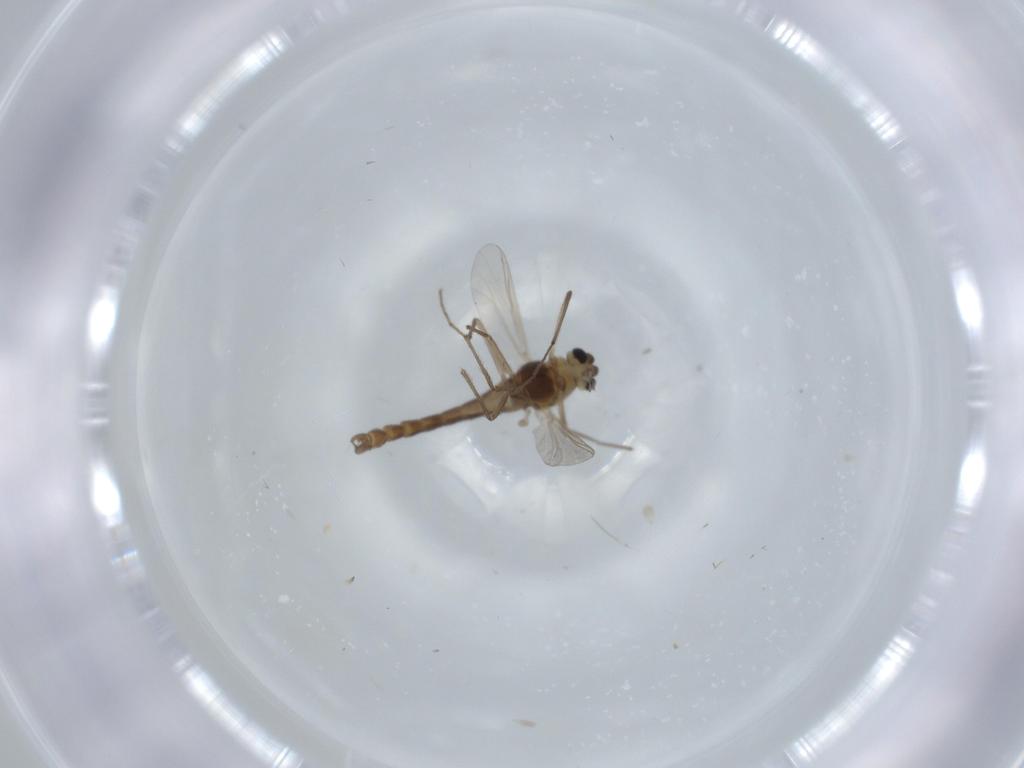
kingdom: Animalia
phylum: Arthropoda
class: Insecta
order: Diptera
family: Chironomidae
